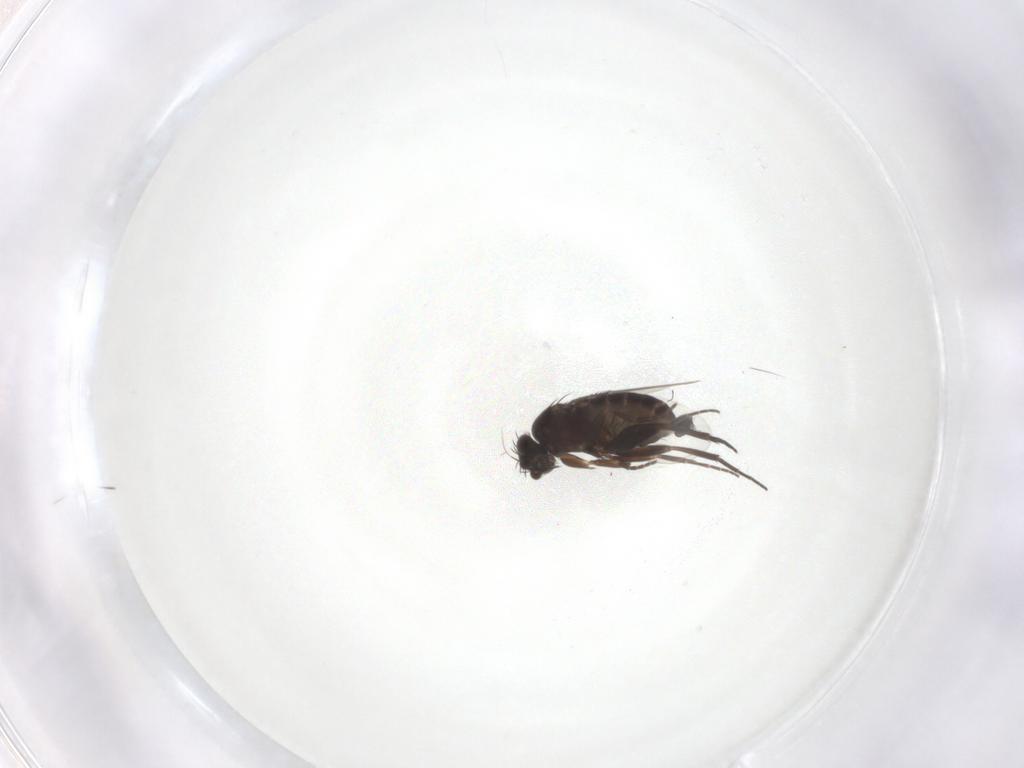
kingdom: Animalia
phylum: Arthropoda
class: Insecta
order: Diptera
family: Phoridae
